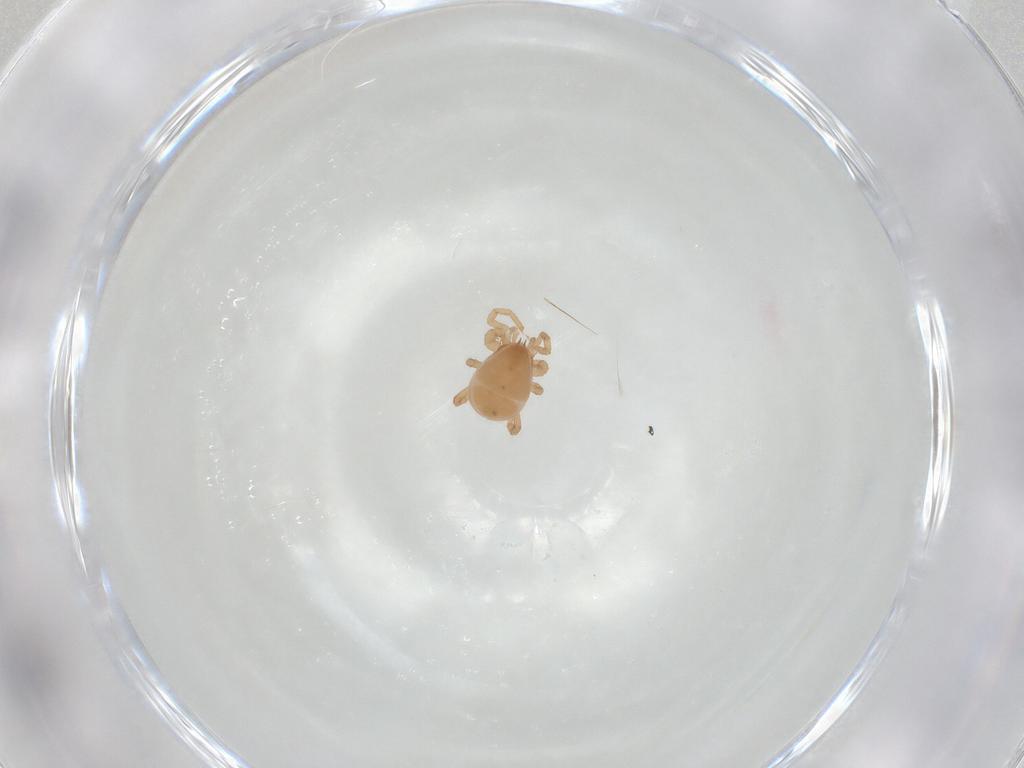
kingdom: Animalia
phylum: Arthropoda
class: Arachnida
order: Mesostigmata
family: Parasitidae
